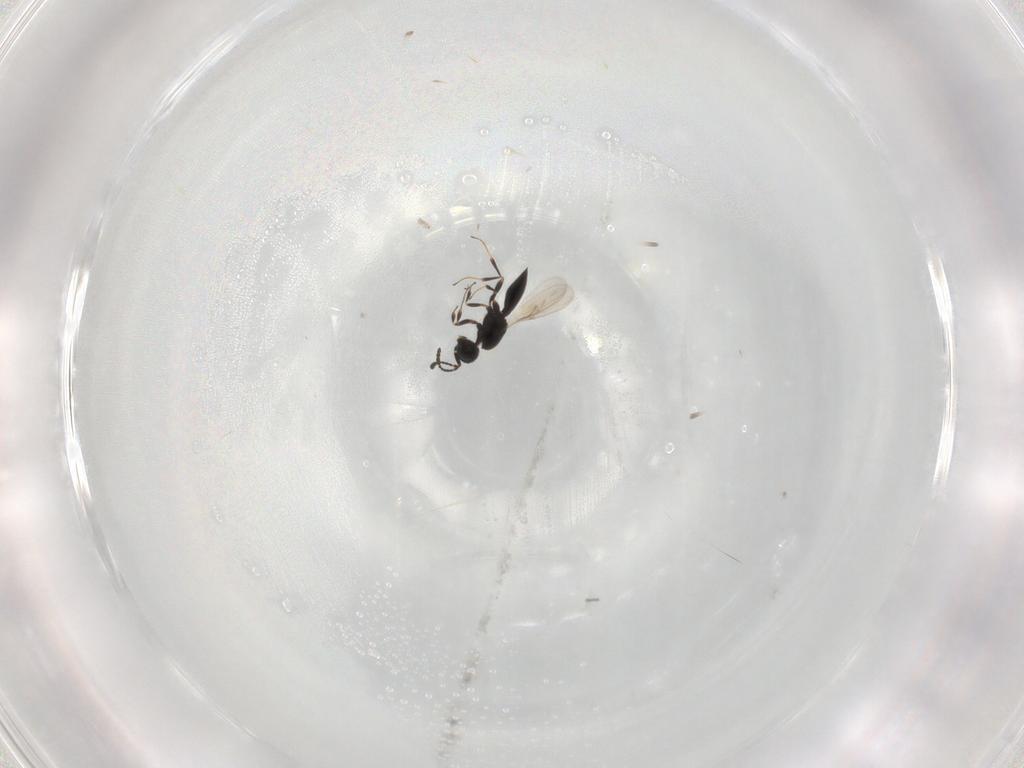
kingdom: Animalia
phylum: Arthropoda
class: Insecta
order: Hymenoptera
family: Scelionidae
